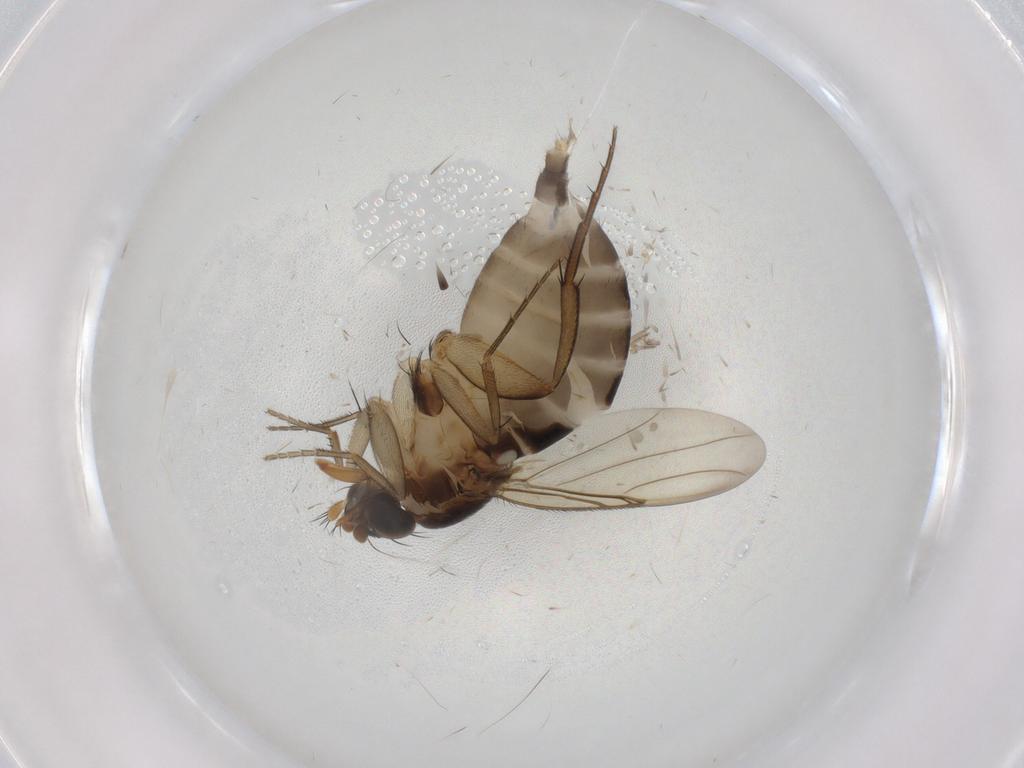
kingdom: Animalia
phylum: Arthropoda
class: Insecta
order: Diptera
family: Phoridae
